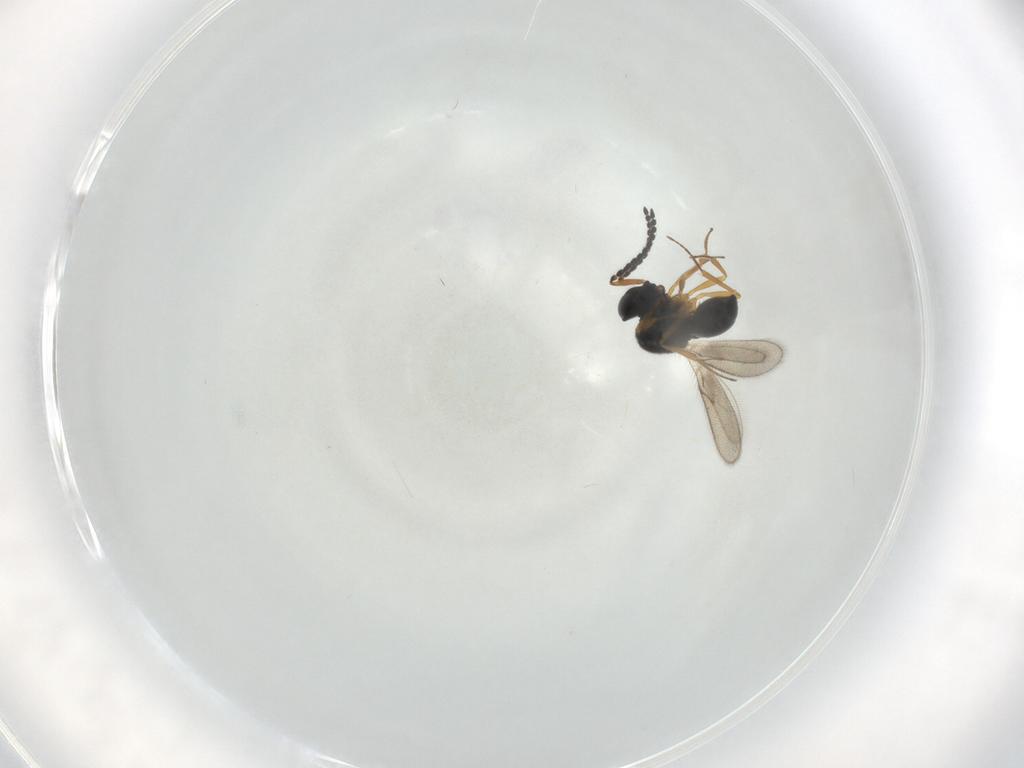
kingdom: Animalia
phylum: Arthropoda
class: Insecta
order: Hymenoptera
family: Scelionidae
